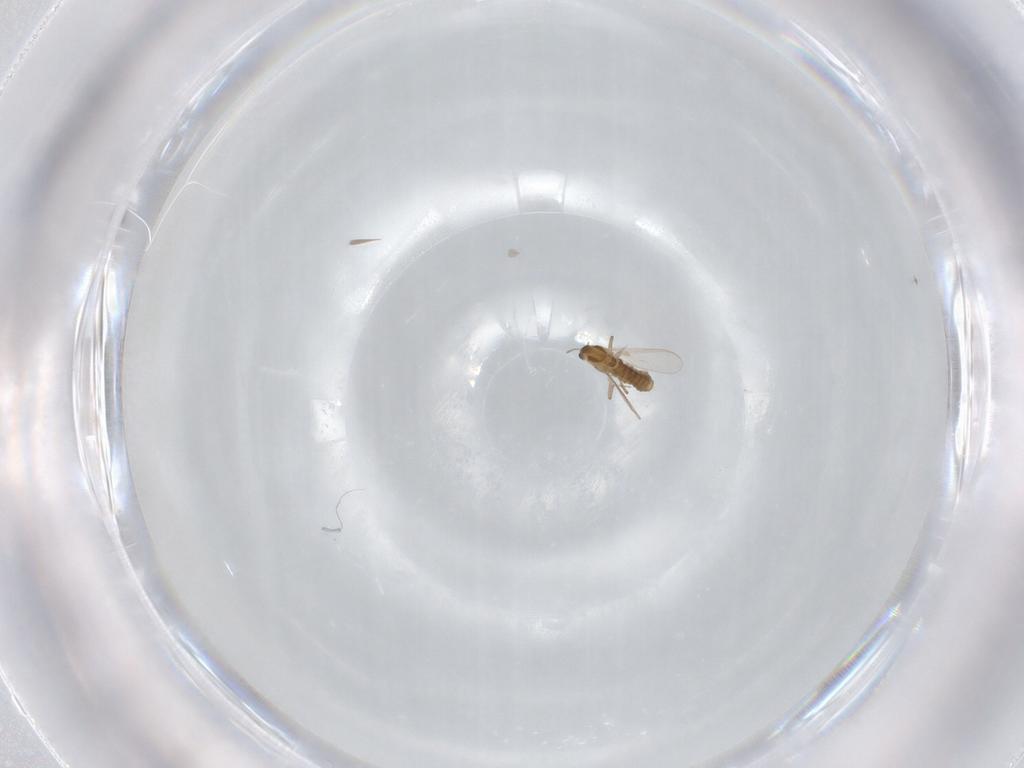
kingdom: Animalia
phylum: Arthropoda
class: Insecta
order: Diptera
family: Chironomidae
